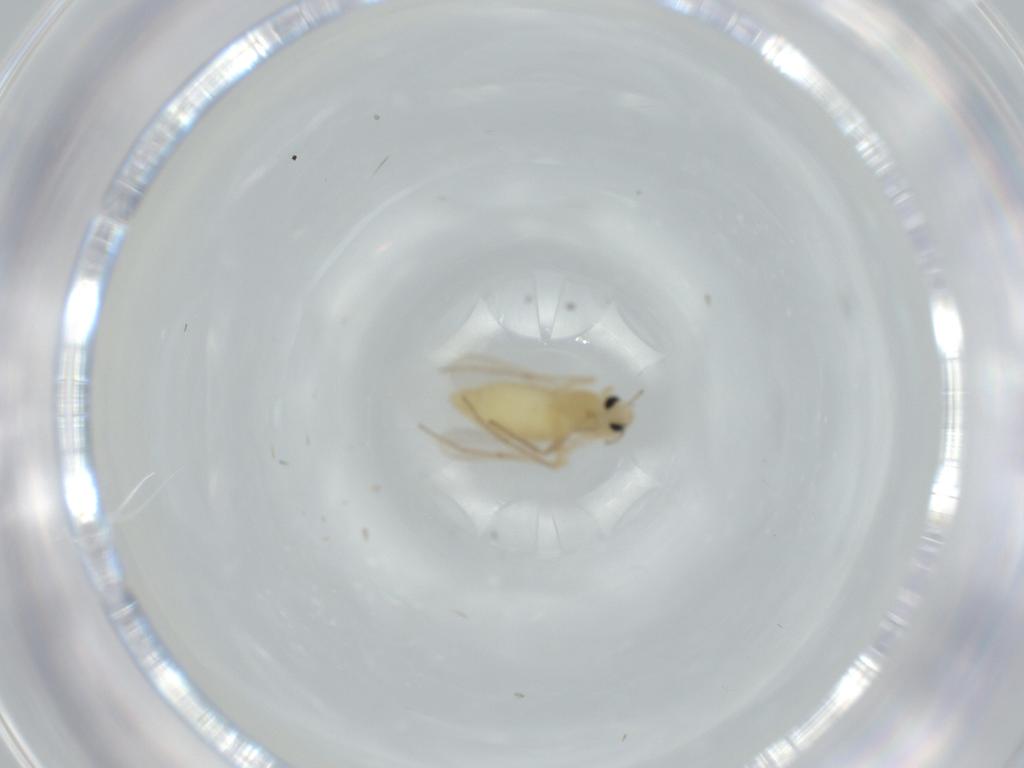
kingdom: Animalia
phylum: Arthropoda
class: Insecta
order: Diptera
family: Chironomidae
